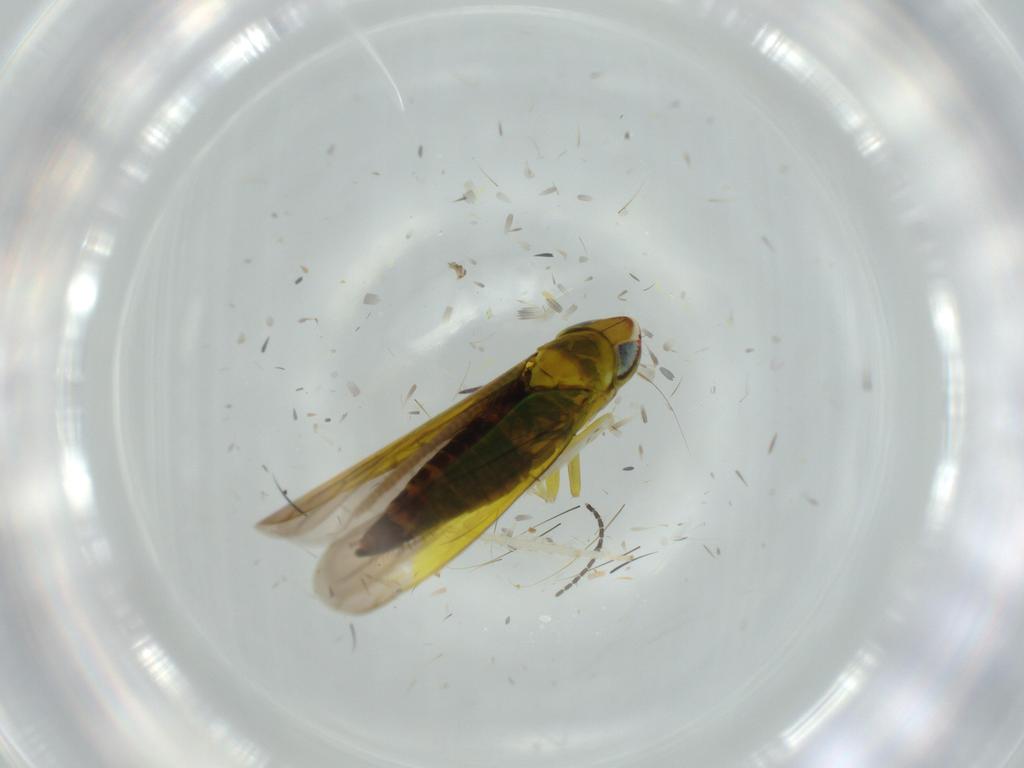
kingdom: Animalia
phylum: Arthropoda
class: Insecta
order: Hemiptera
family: Cicadellidae
